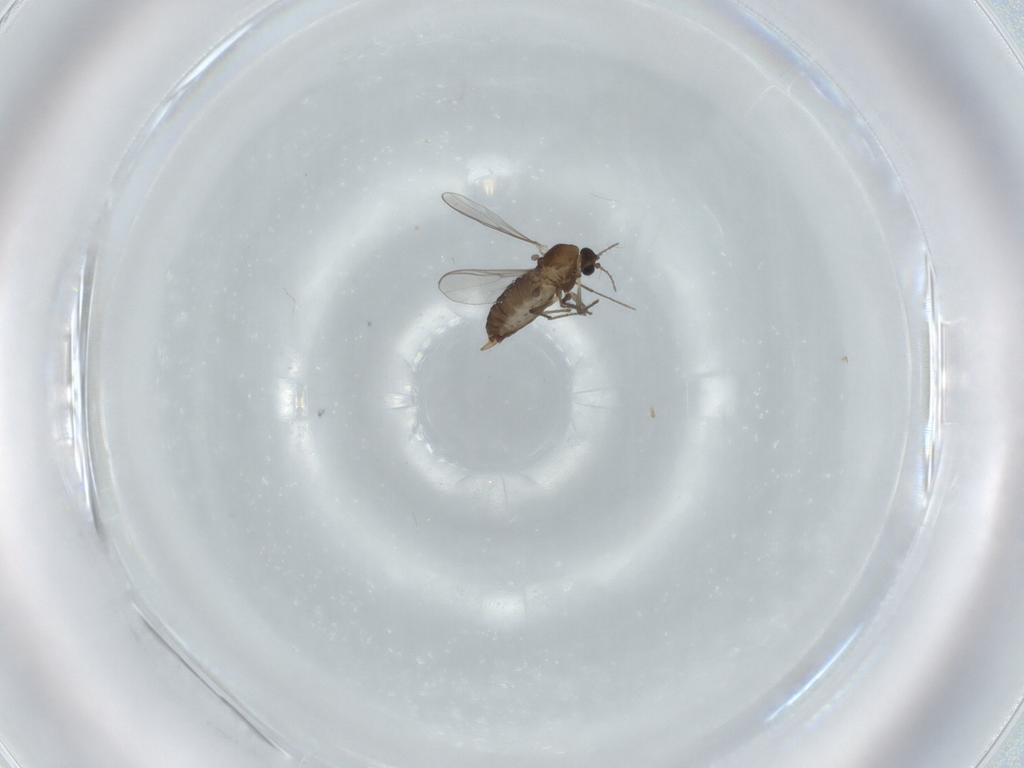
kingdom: Animalia
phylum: Arthropoda
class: Insecta
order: Diptera
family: Chironomidae
